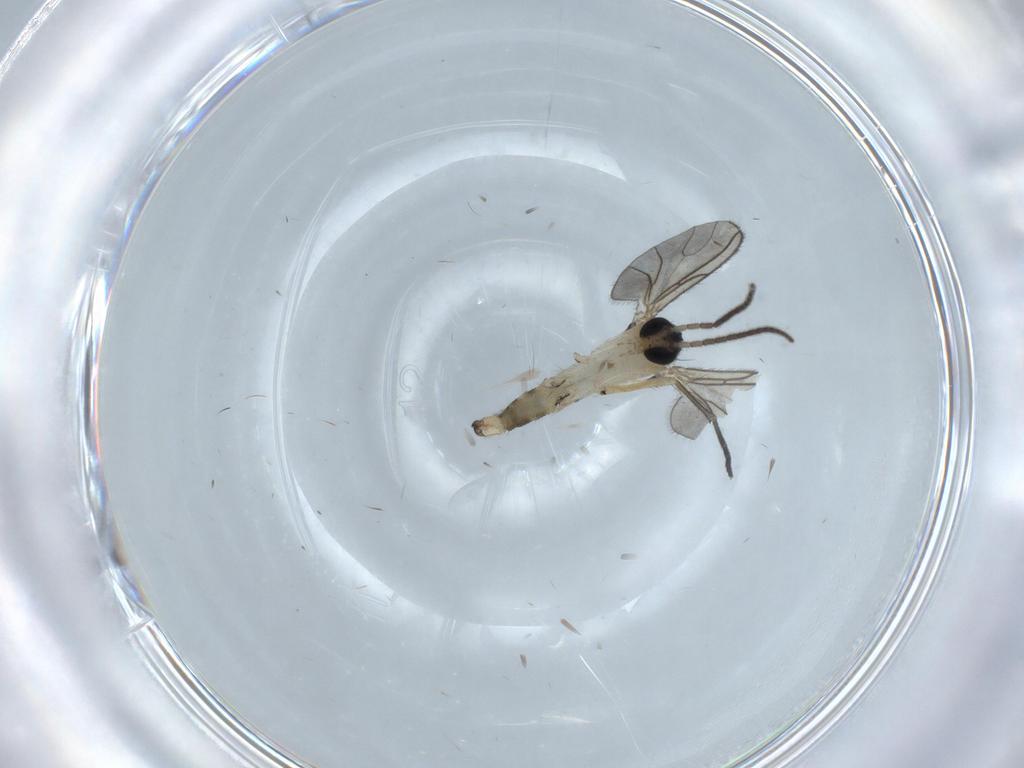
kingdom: Animalia
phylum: Arthropoda
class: Insecta
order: Diptera
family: Sciaridae
